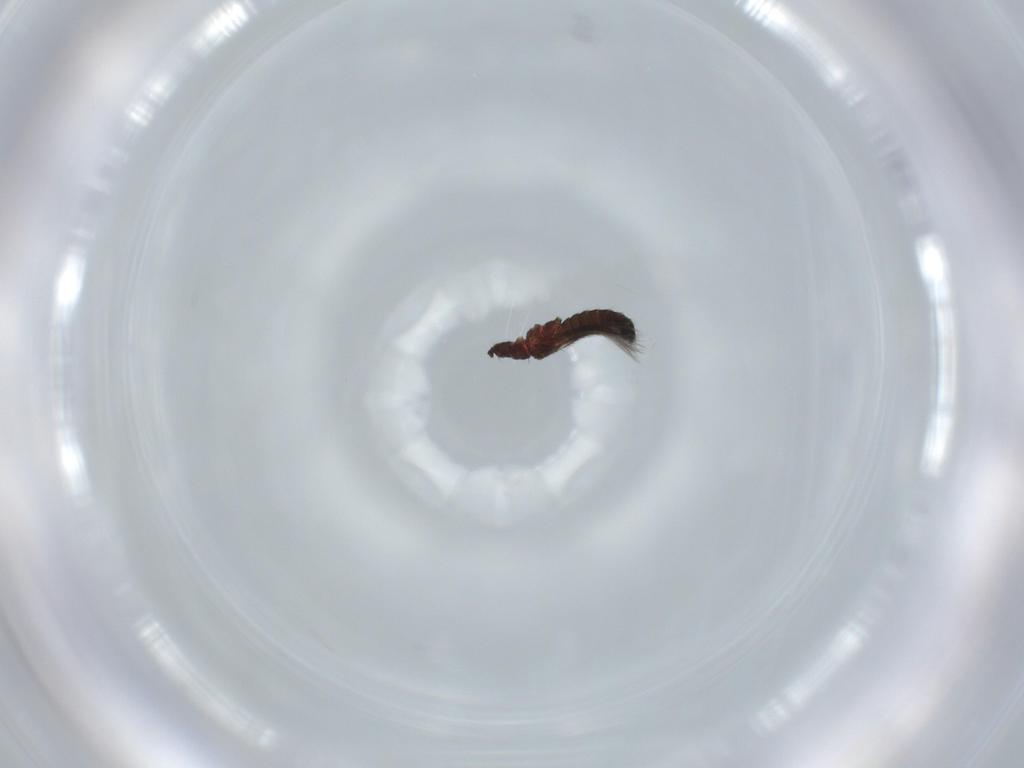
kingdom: Animalia
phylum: Arthropoda
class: Insecta
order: Thysanoptera
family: Thripidae
